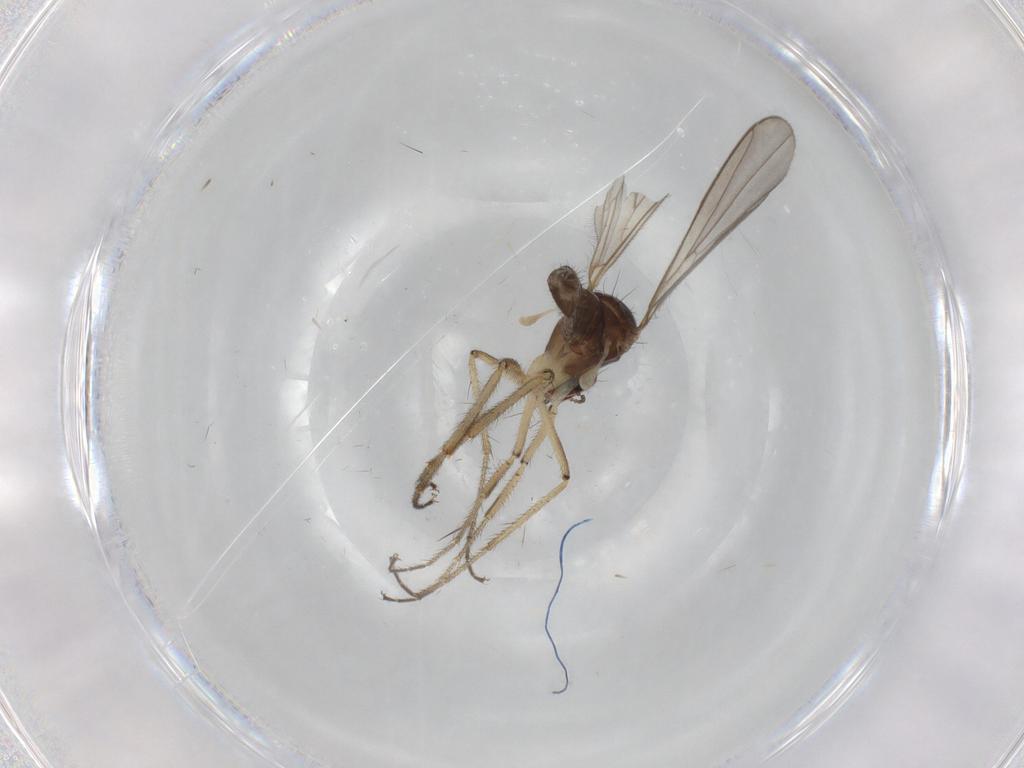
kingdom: Animalia
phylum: Arthropoda
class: Insecta
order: Diptera
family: Hybotidae
